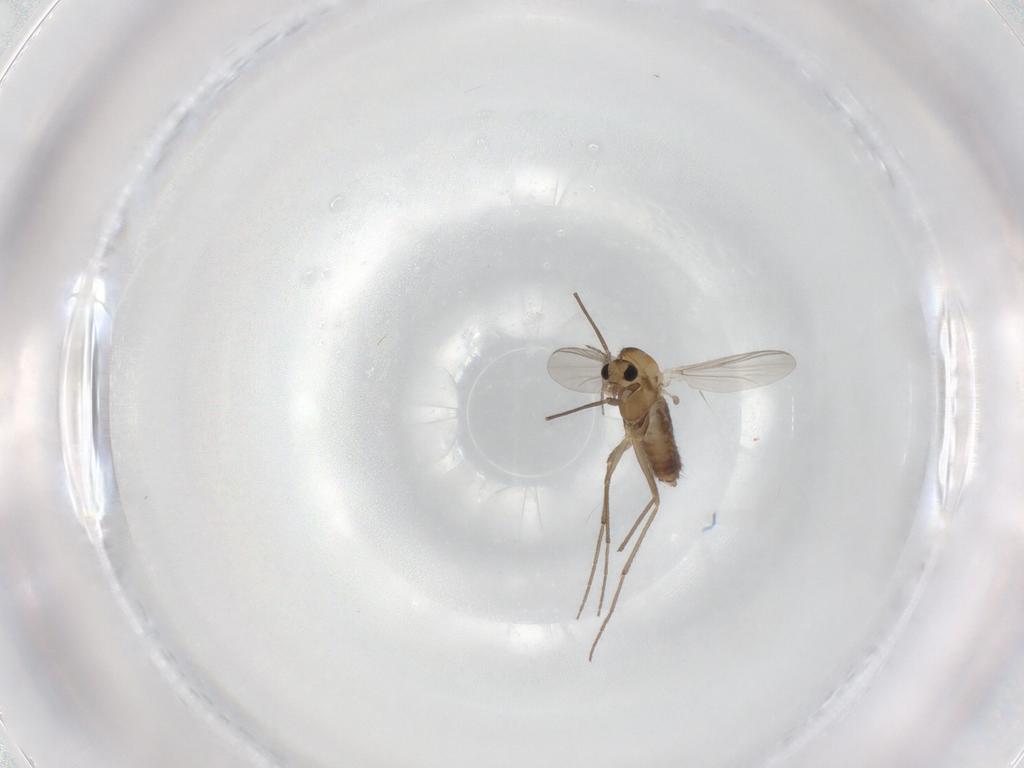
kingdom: Animalia
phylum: Arthropoda
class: Insecta
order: Diptera
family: Chironomidae
